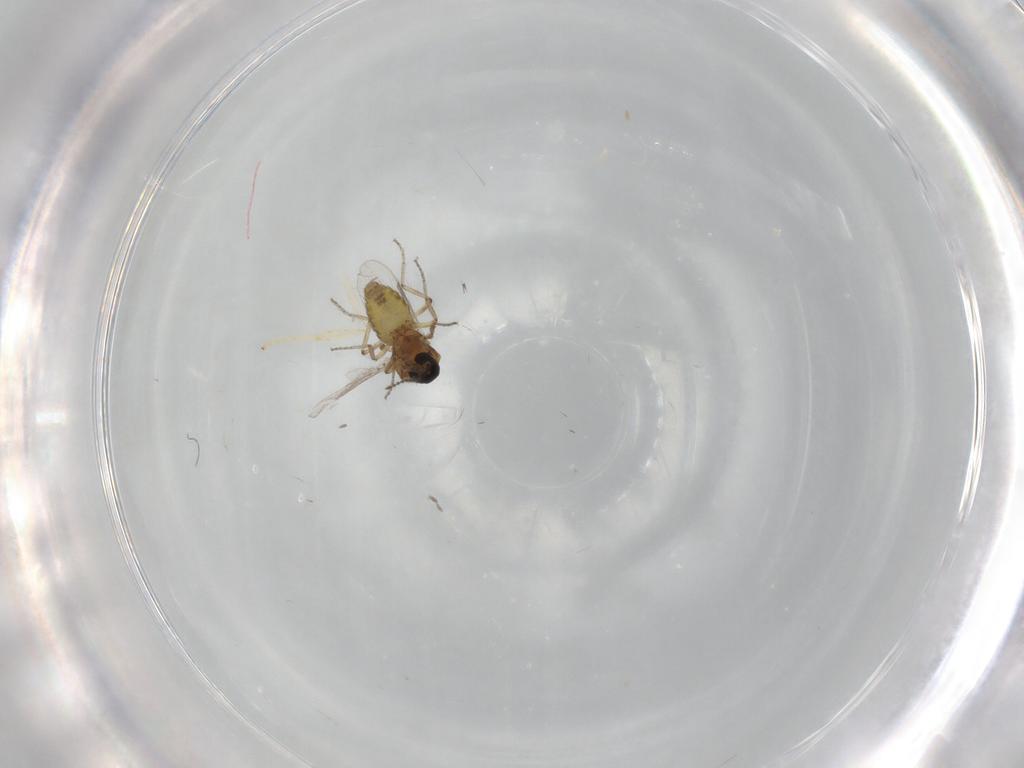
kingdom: Animalia
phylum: Arthropoda
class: Insecta
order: Diptera
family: Ceratopogonidae
